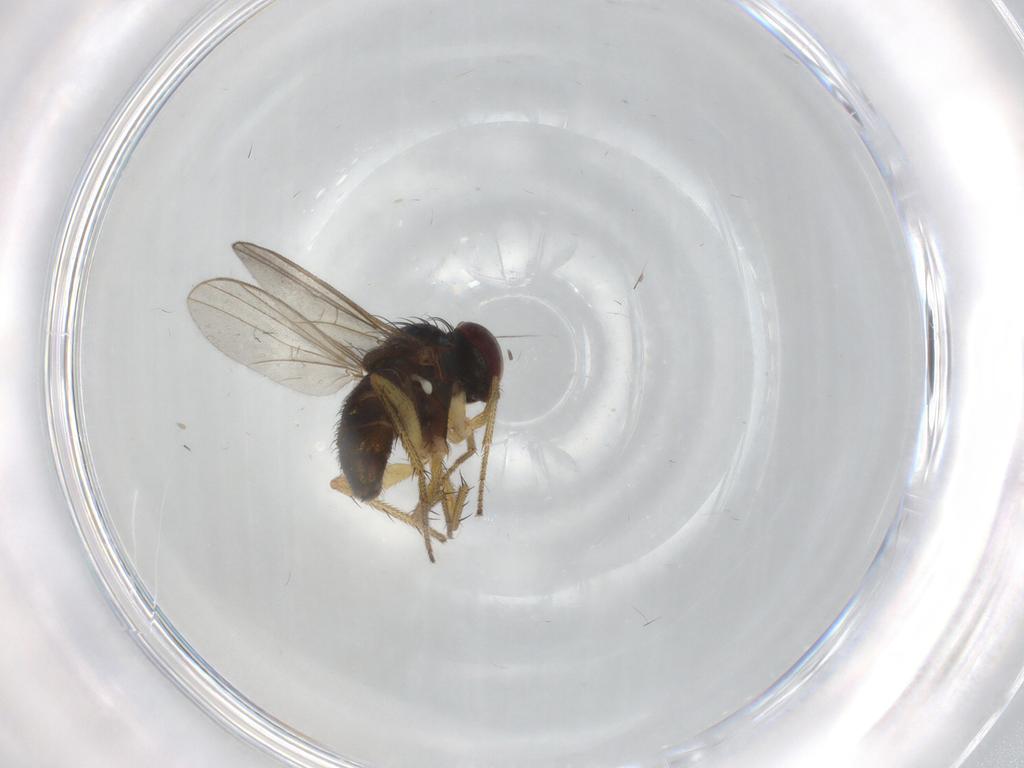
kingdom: Animalia
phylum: Arthropoda
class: Insecta
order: Diptera
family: Dolichopodidae
